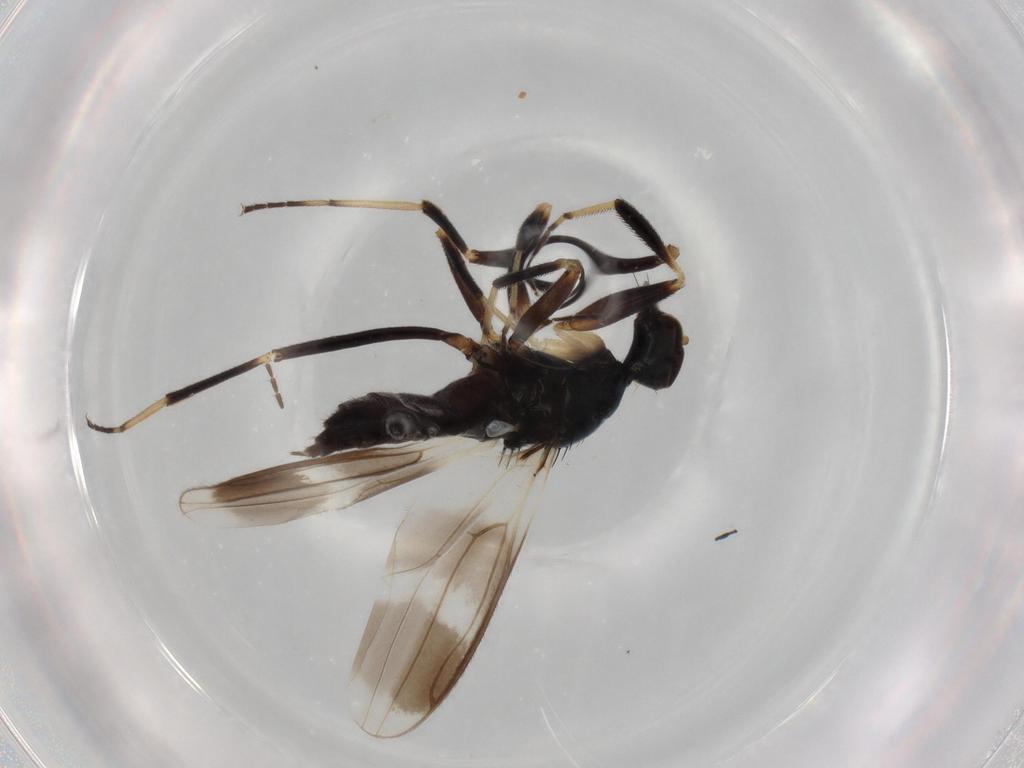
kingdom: Animalia
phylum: Arthropoda
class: Insecta
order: Diptera
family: Hybotidae
